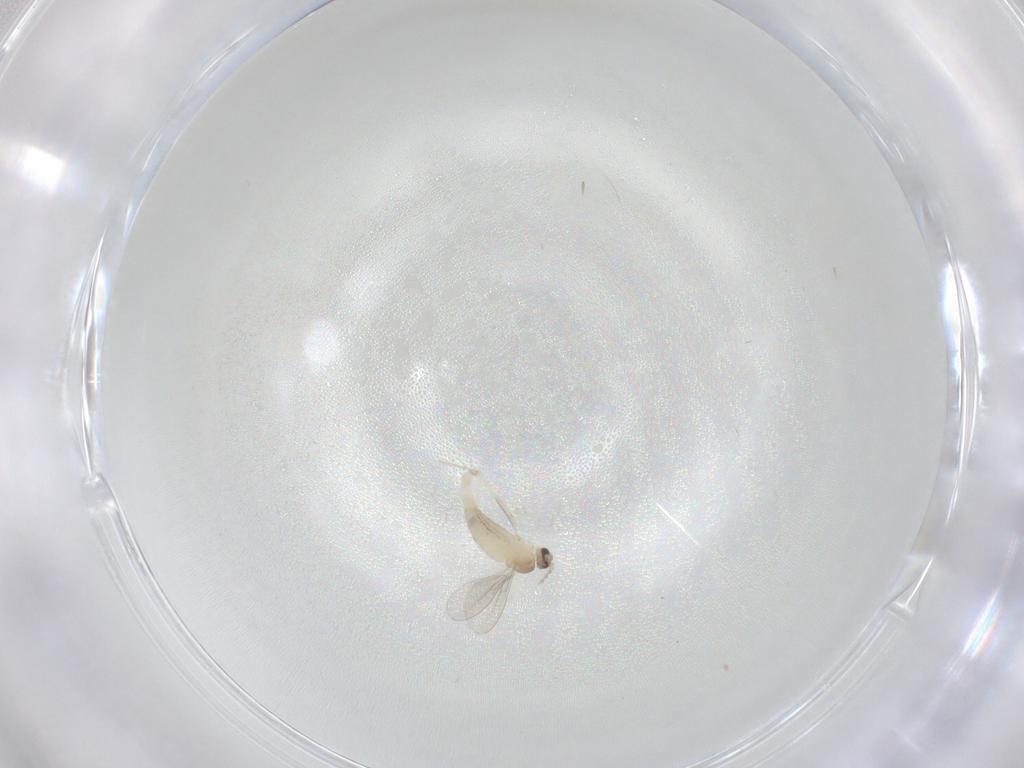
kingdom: Animalia
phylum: Arthropoda
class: Insecta
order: Diptera
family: Cecidomyiidae
